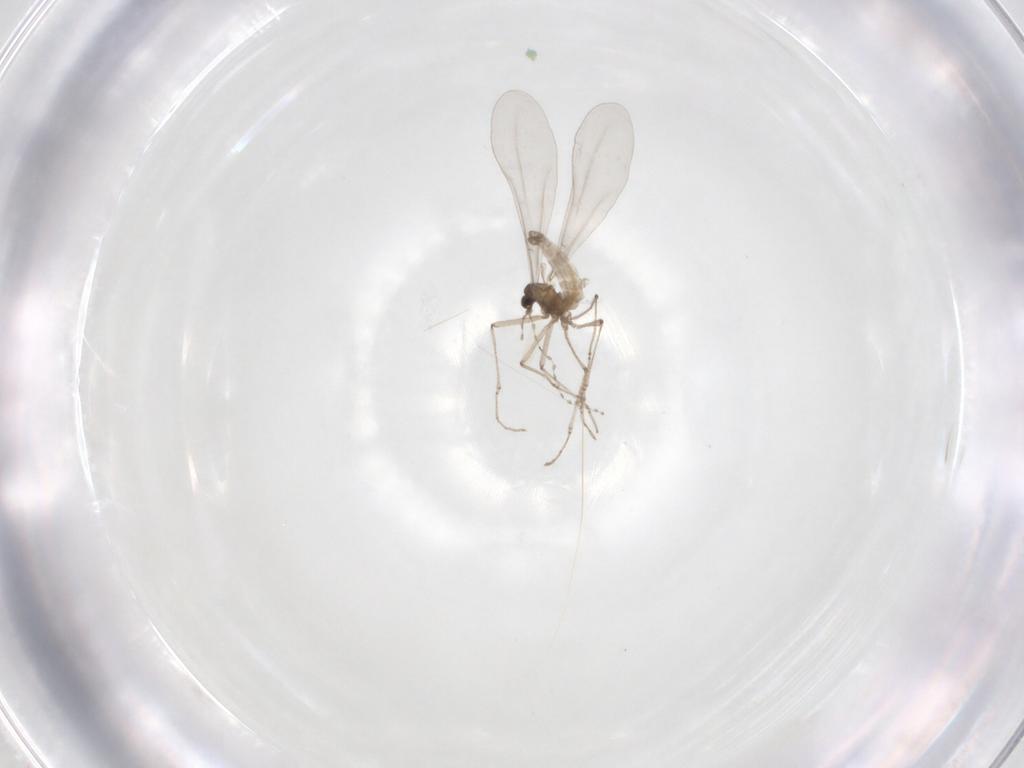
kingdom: Animalia
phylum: Arthropoda
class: Insecta
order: Diptera
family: Cecidomyiidae
